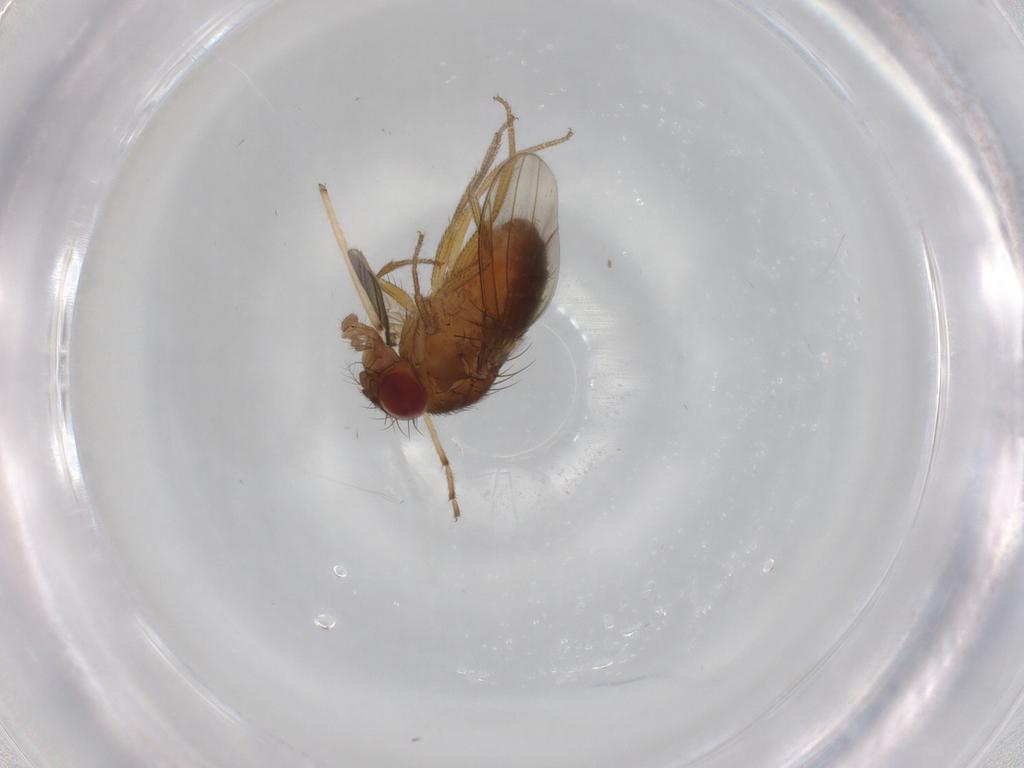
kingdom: Animalia
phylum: Arthropoda
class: Insecta
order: Diptera
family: Drosophilidae
